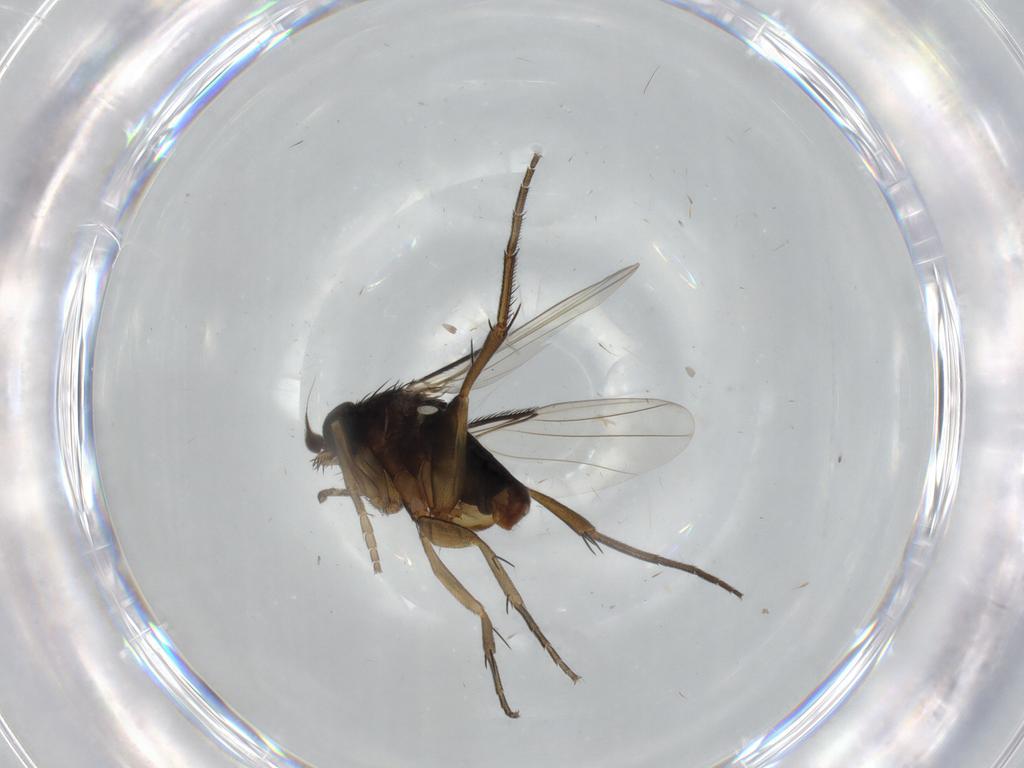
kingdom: Animalia
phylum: Arthropoda
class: Insecta
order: Diptera
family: Phoridae
